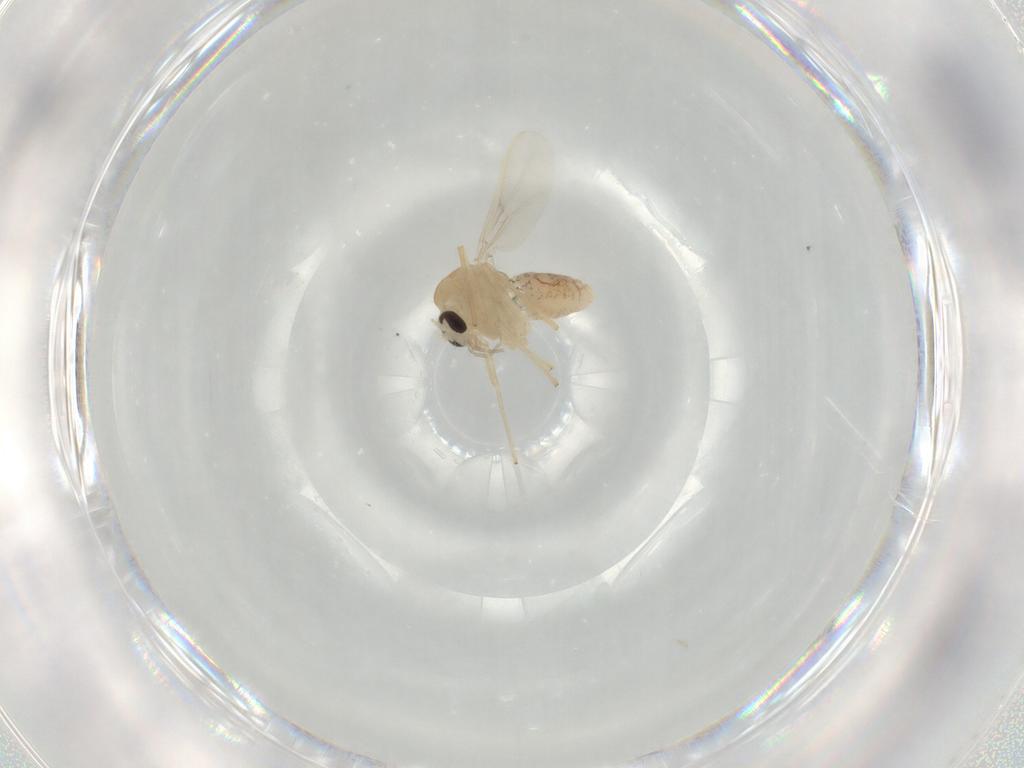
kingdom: Animalia
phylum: Arthropoda
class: Insecta
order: Diptera
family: Chironomidae
